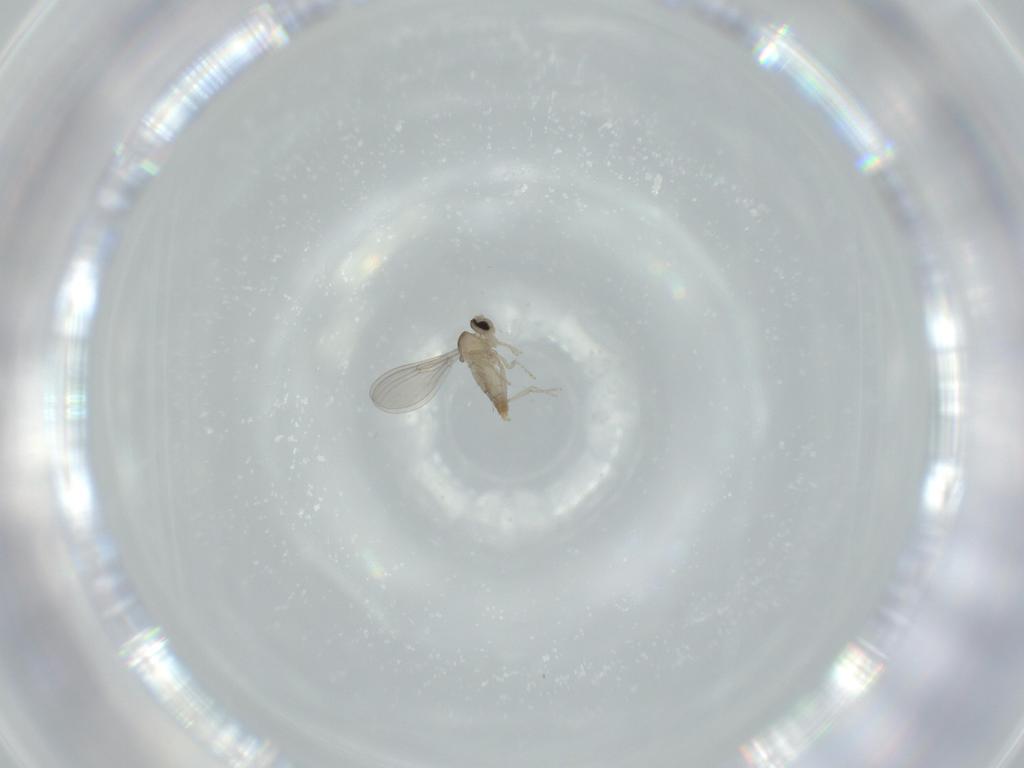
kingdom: Animalia
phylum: Arthropoda
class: Insecta
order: Diptera
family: Cecidomyiidae
